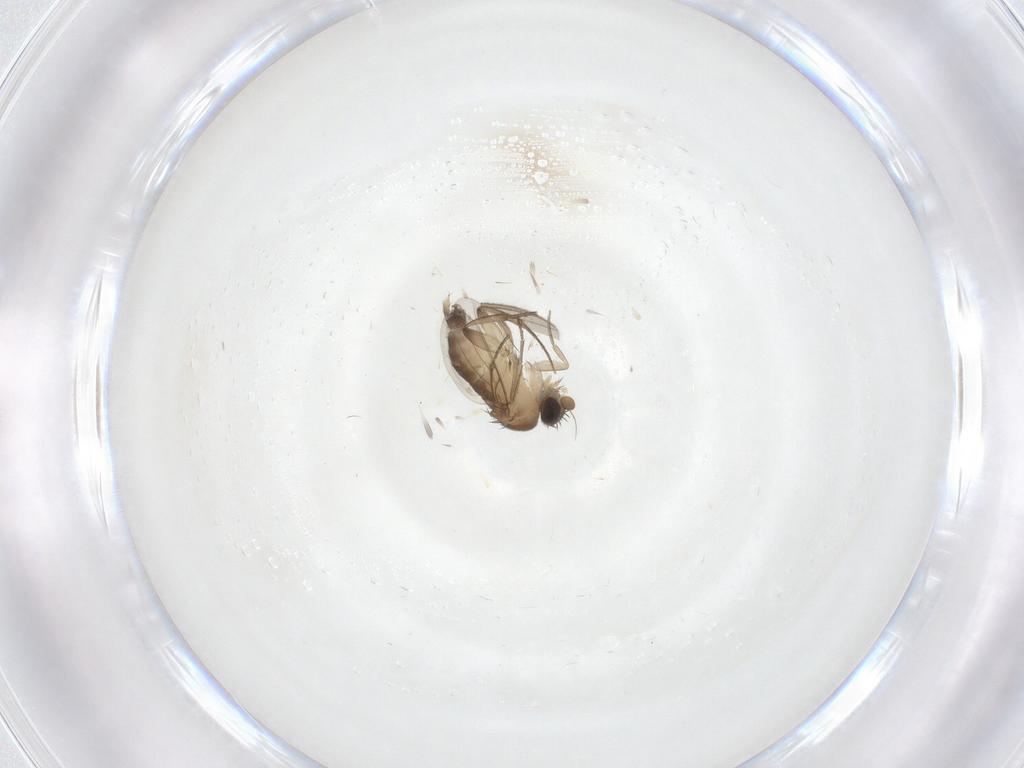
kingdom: Animalia
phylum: Arthropoda
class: Insecta
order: Diptera
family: Phoridae
